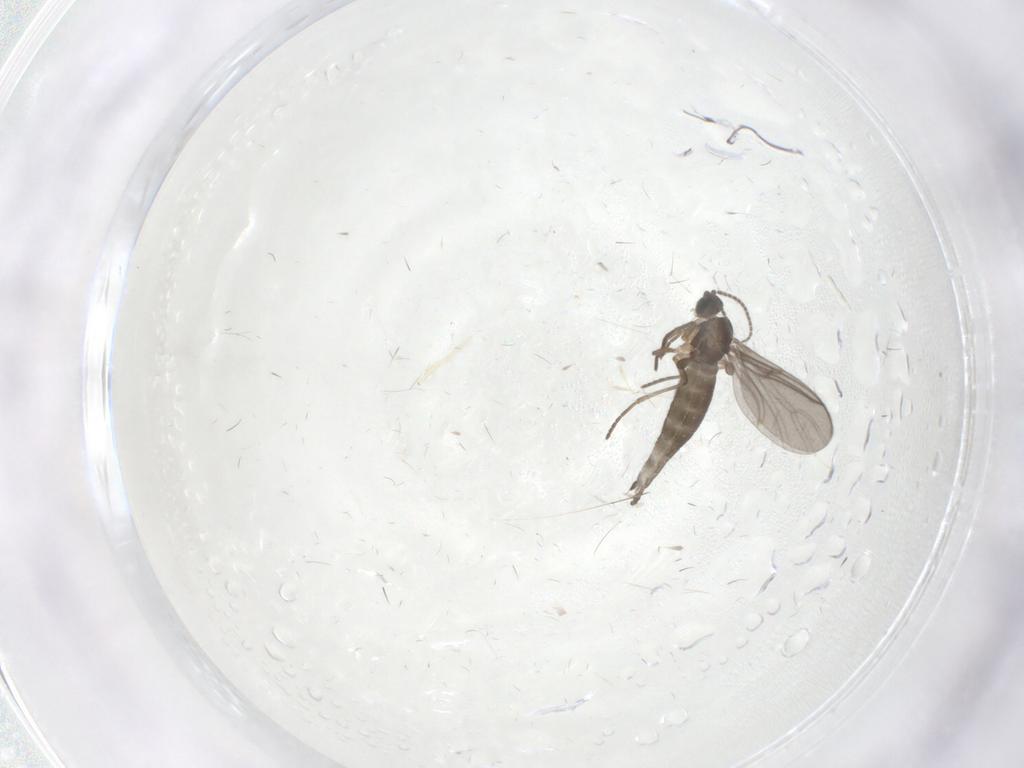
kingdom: Animalia
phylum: Arthropoda
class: Insecta
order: Diptera
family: Sciaridae
